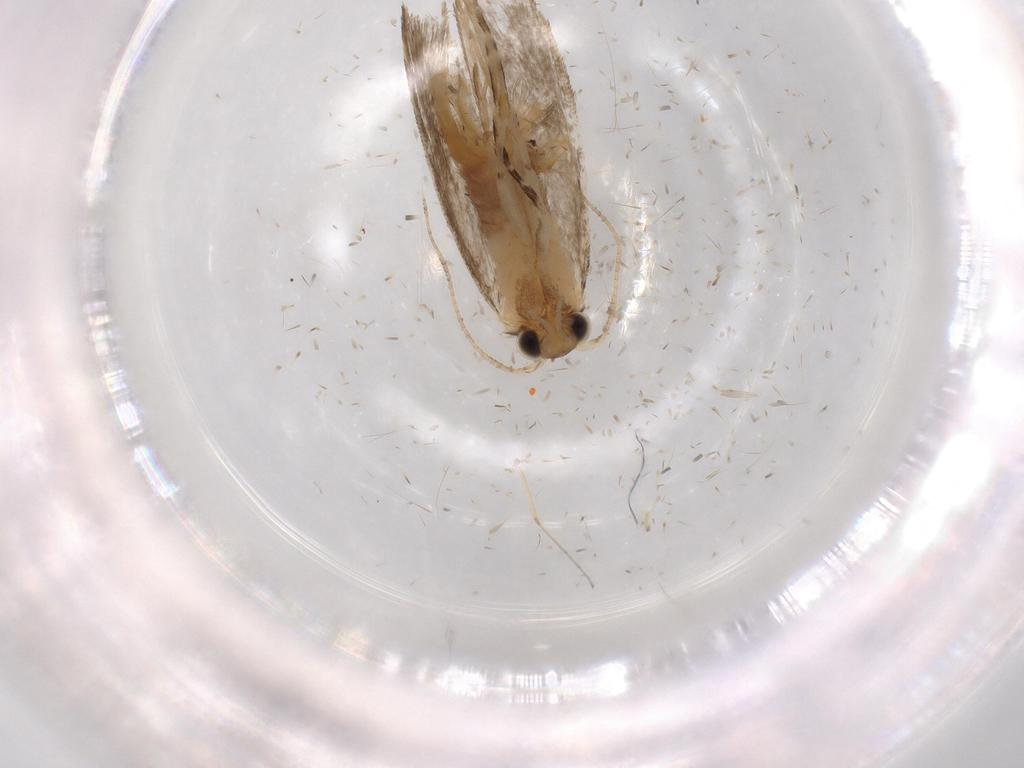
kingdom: Animalia
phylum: Arthropoda
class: Insecta
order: Lepidoptera
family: Tineidae
